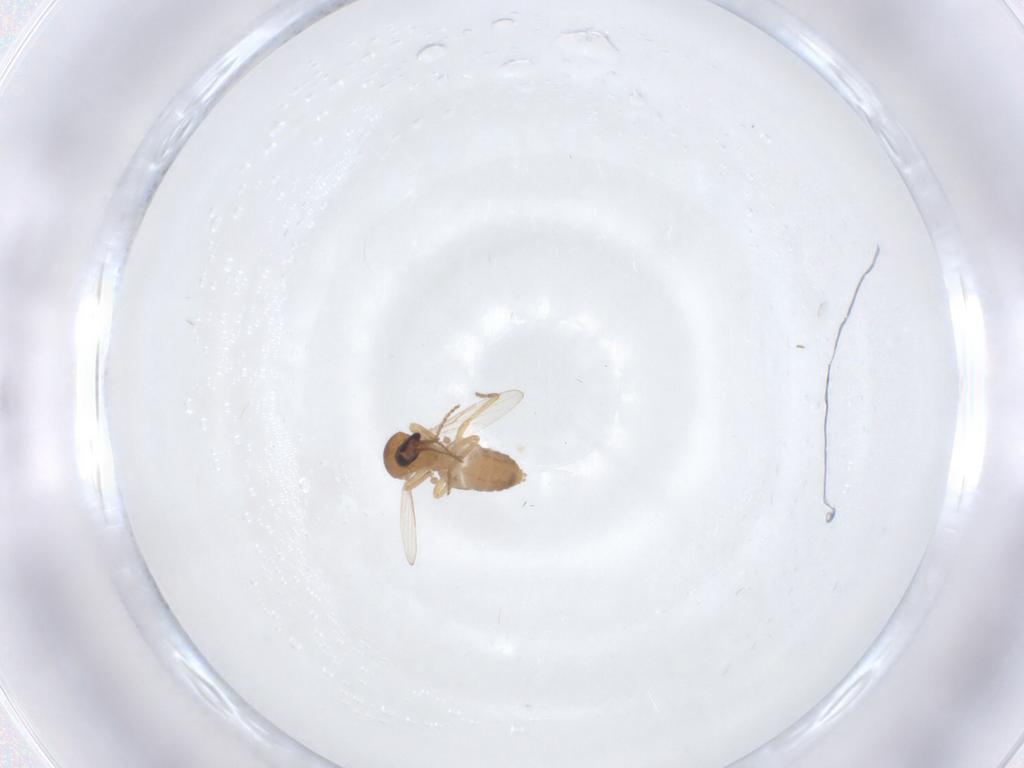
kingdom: Animalia
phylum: Arthropoda
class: Insecta
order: Diptera
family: Ceratopogonidae
